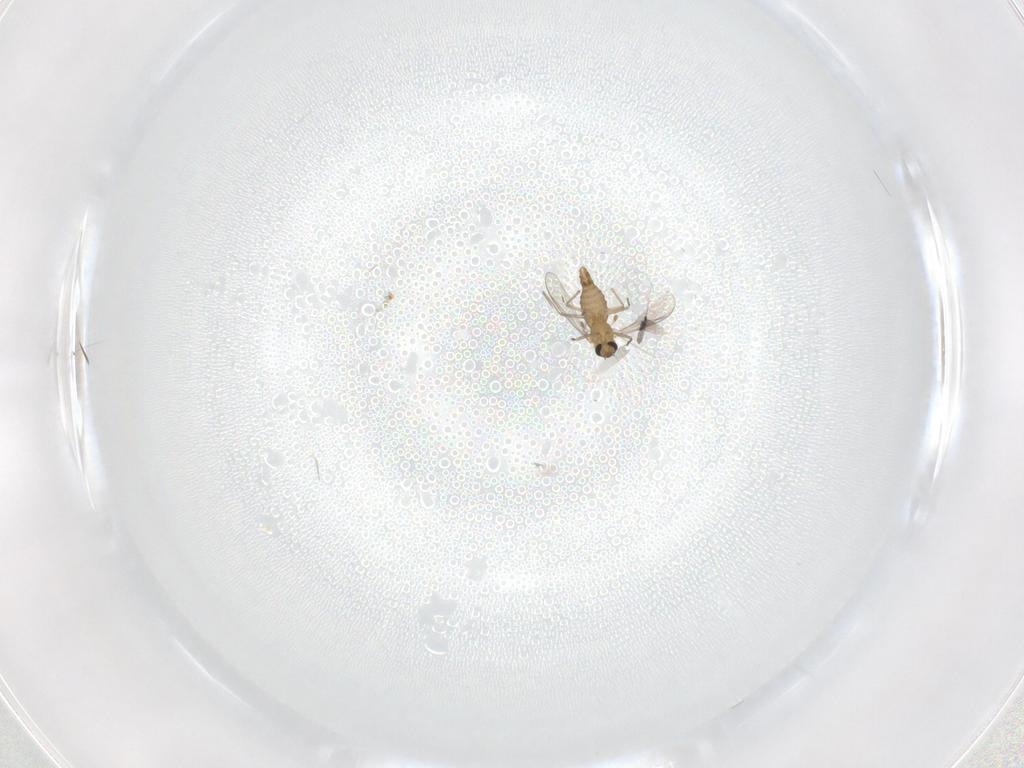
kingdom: Animalia
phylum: Arthropoda
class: Insecta
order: Diptera
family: Chironomidae
